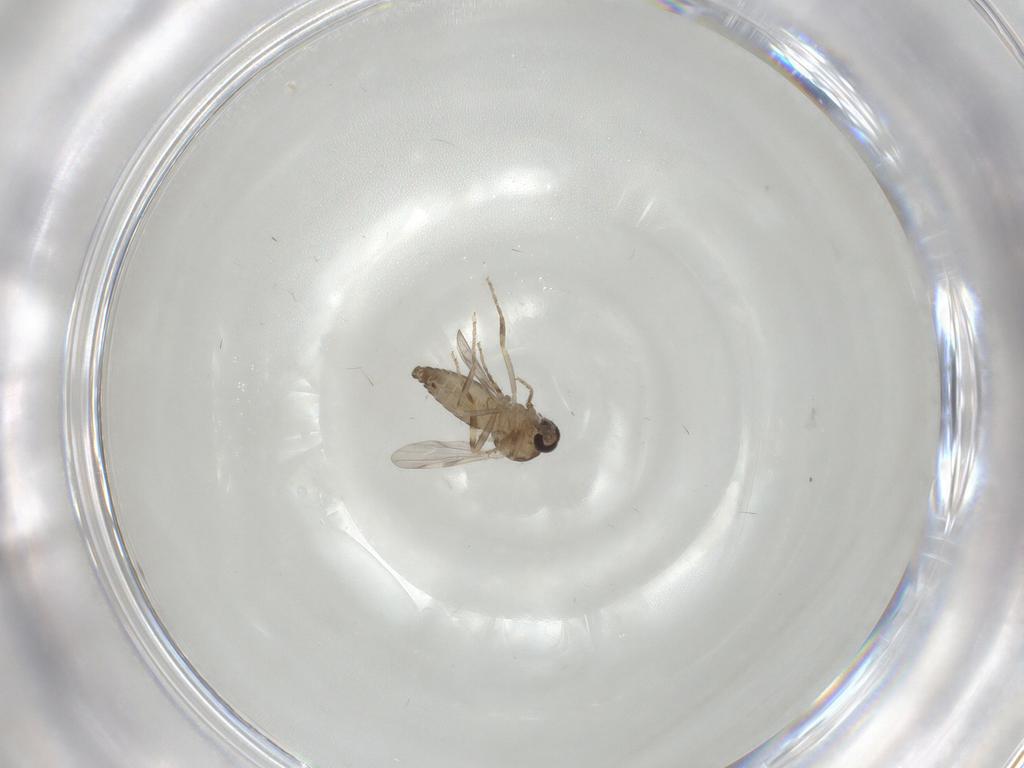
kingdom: Animalia
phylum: Arthropoda
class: Insecta
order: Diptera
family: Ceratopogonidae
